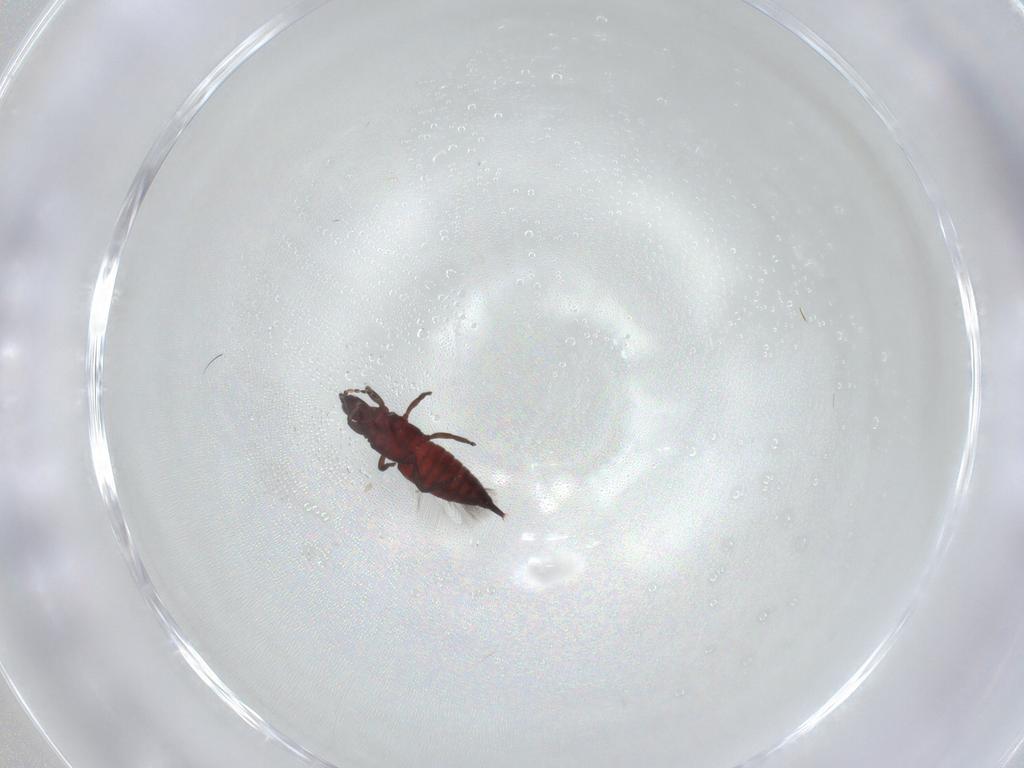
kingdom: Animalia
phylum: Arthropoda
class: Insecta
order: Thysanoptera
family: Phlaeothripidae
